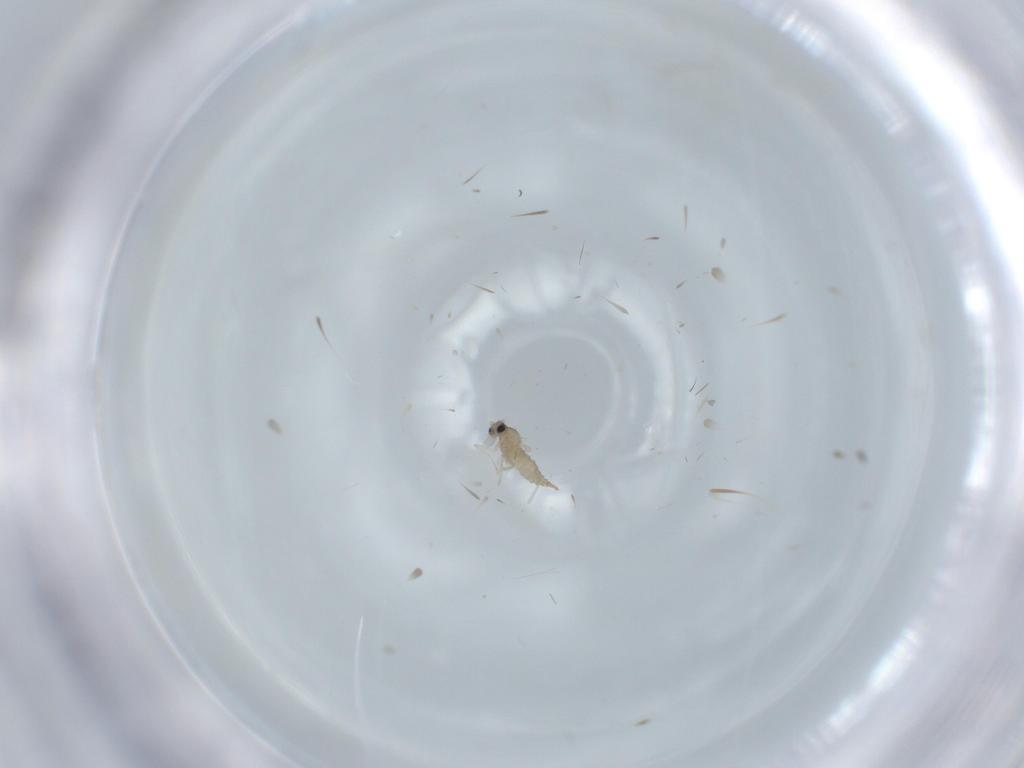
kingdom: Animalia
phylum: Arthropoda
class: Insecta
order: Diptera
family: Cecidomyiidae
